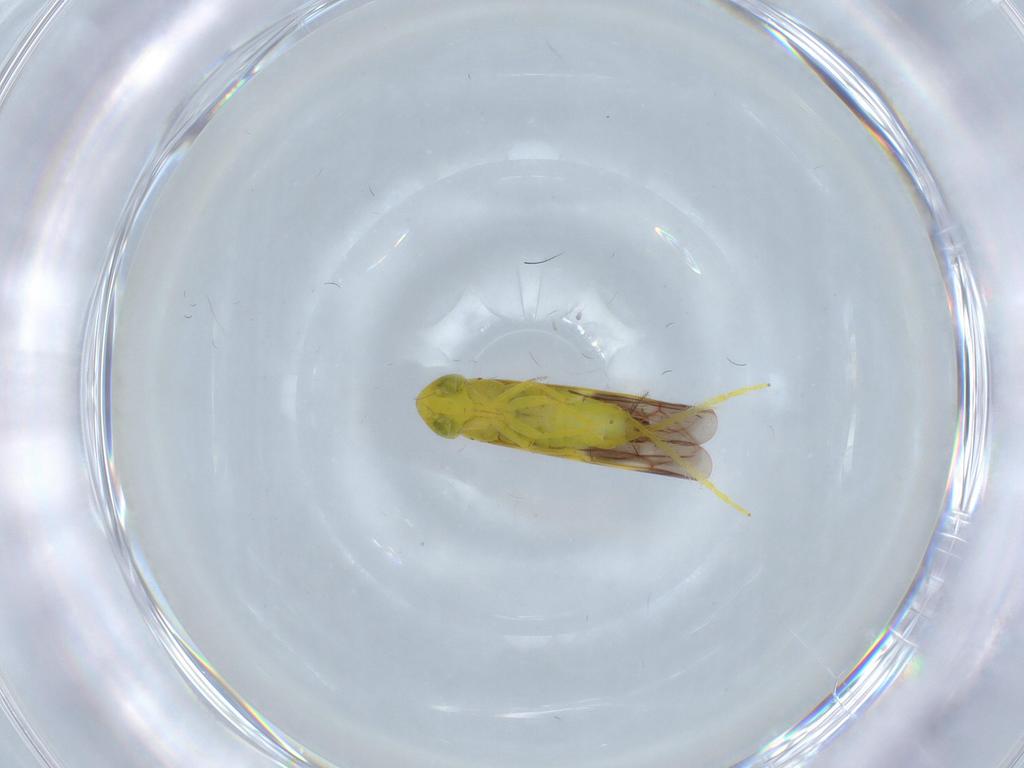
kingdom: Animalia
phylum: Arthropoda
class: Insecta
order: Hemiptera
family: Cicadellidae
